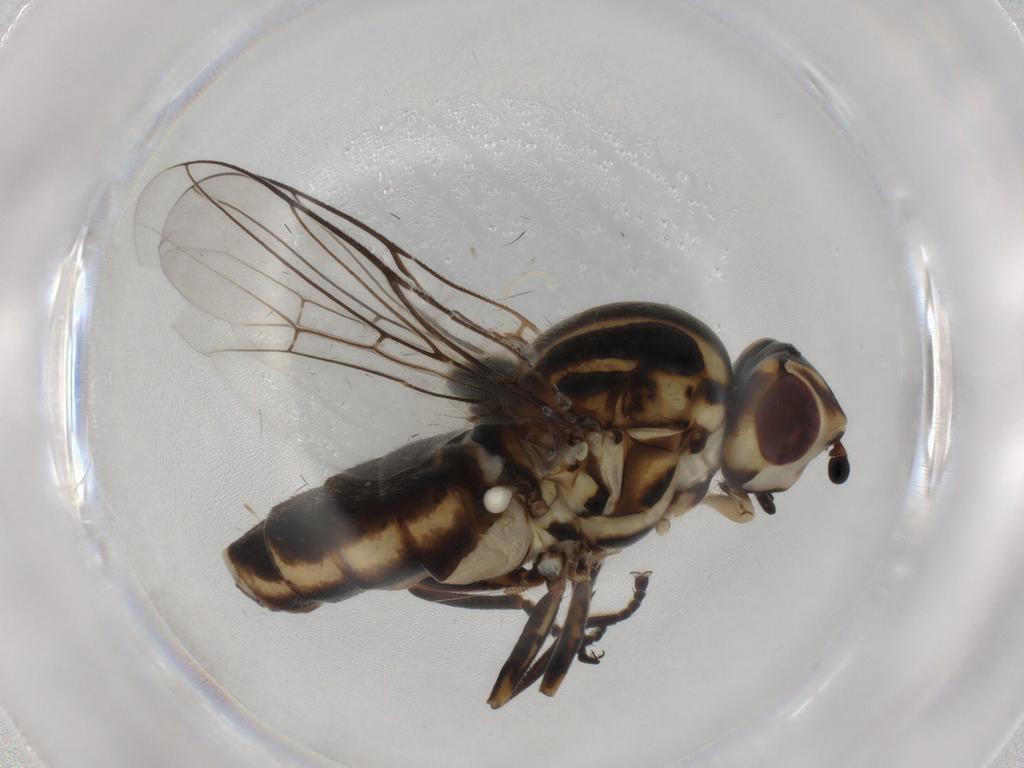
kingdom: Animalia
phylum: Arthropoda
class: Insecta
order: Diptera
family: Chloropidae
